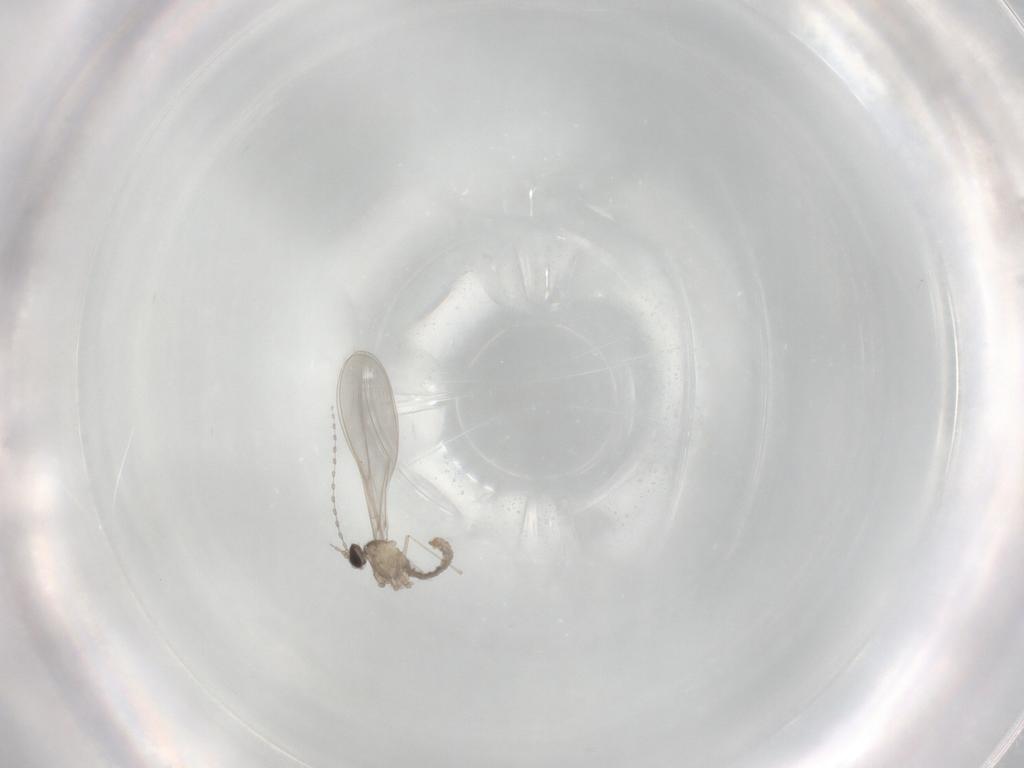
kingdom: Animalia
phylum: Arthropoda
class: Insecta
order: Diptera
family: Cecidomyiidae
